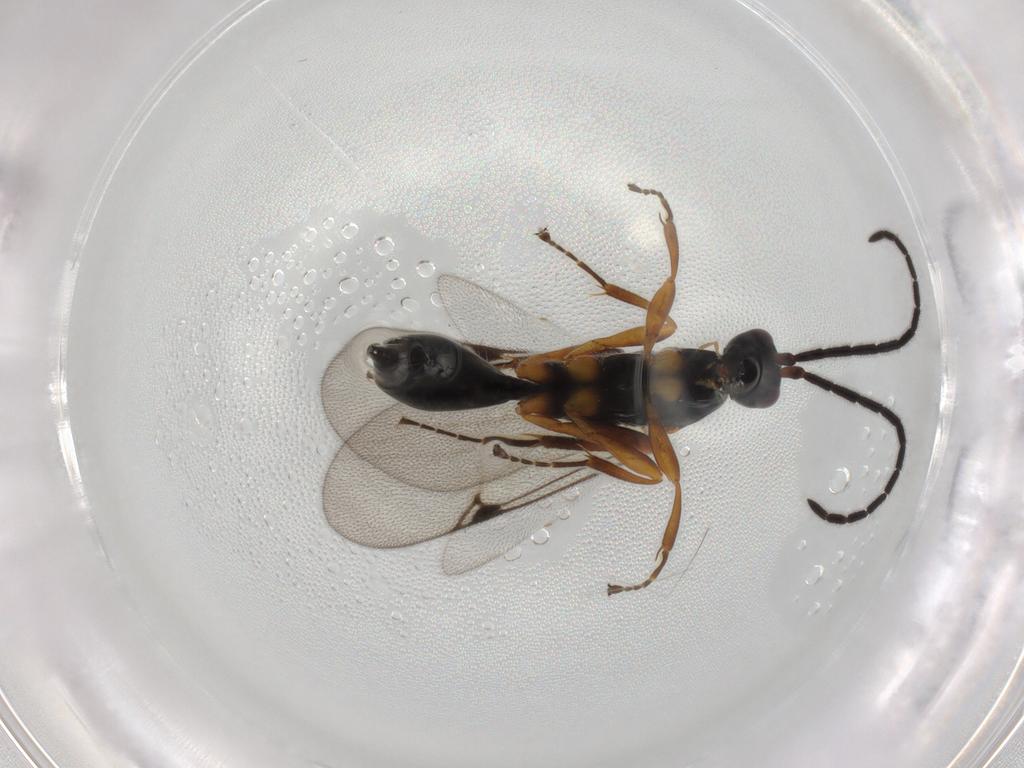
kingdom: Animalia
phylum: Arthropoda
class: Insecta
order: Hymenoptera
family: Proctotrupidae
